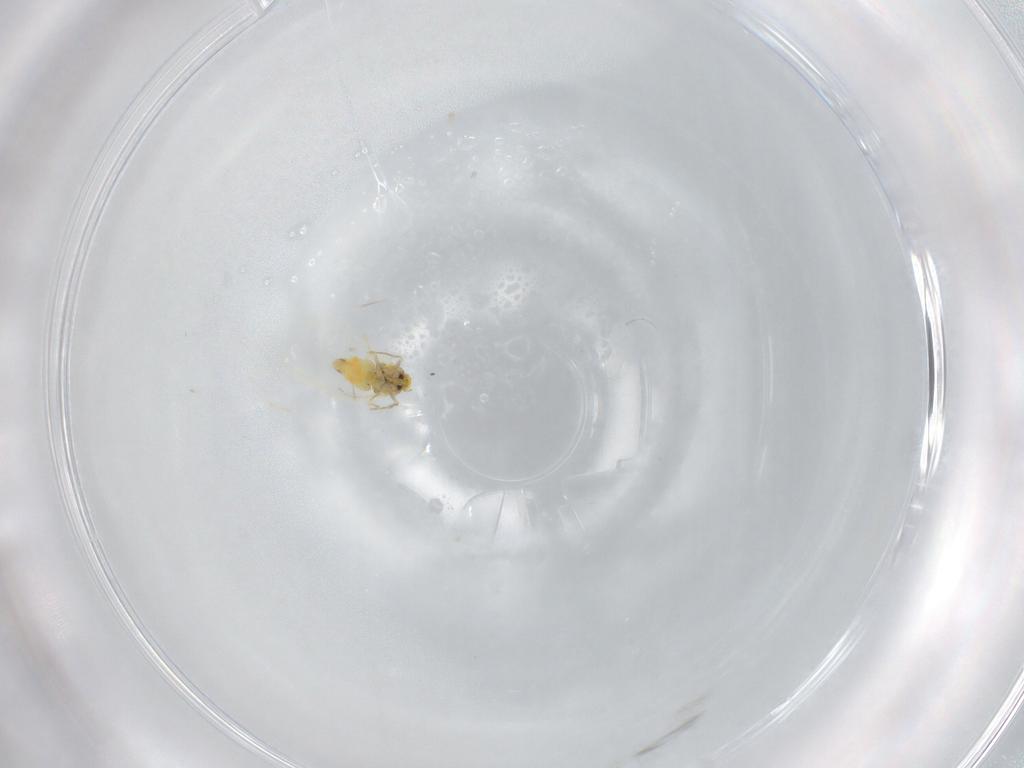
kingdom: Animalia
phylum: Arthropoda
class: Insecta
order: Hemiptera
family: Aleyrodidae
